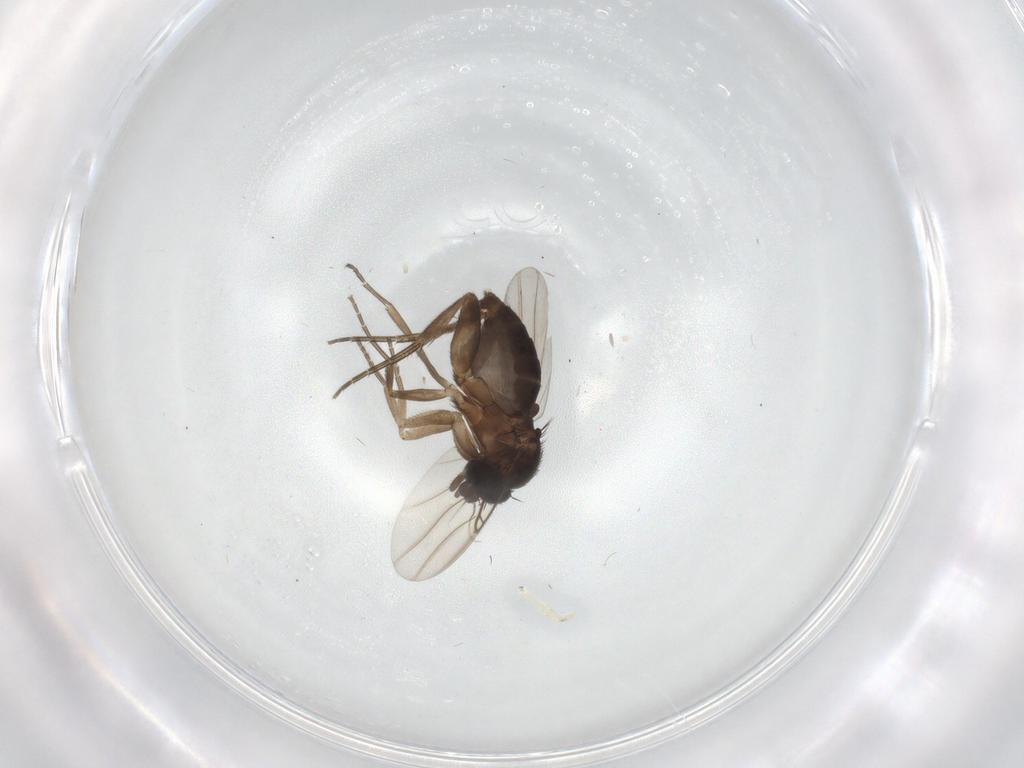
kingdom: Animalia
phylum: Arthropoda
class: Insecta
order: Diptera
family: Phoridae
